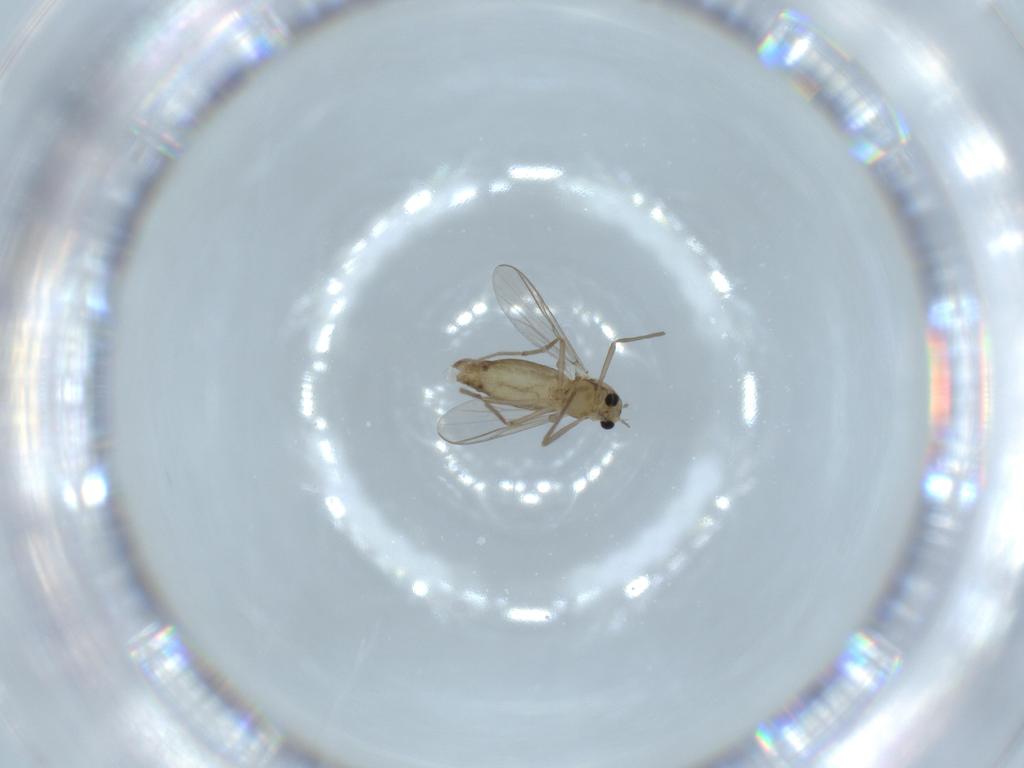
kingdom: Animalia
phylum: Arthropoda
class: Insecta
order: Diptera
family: Chironomidae
